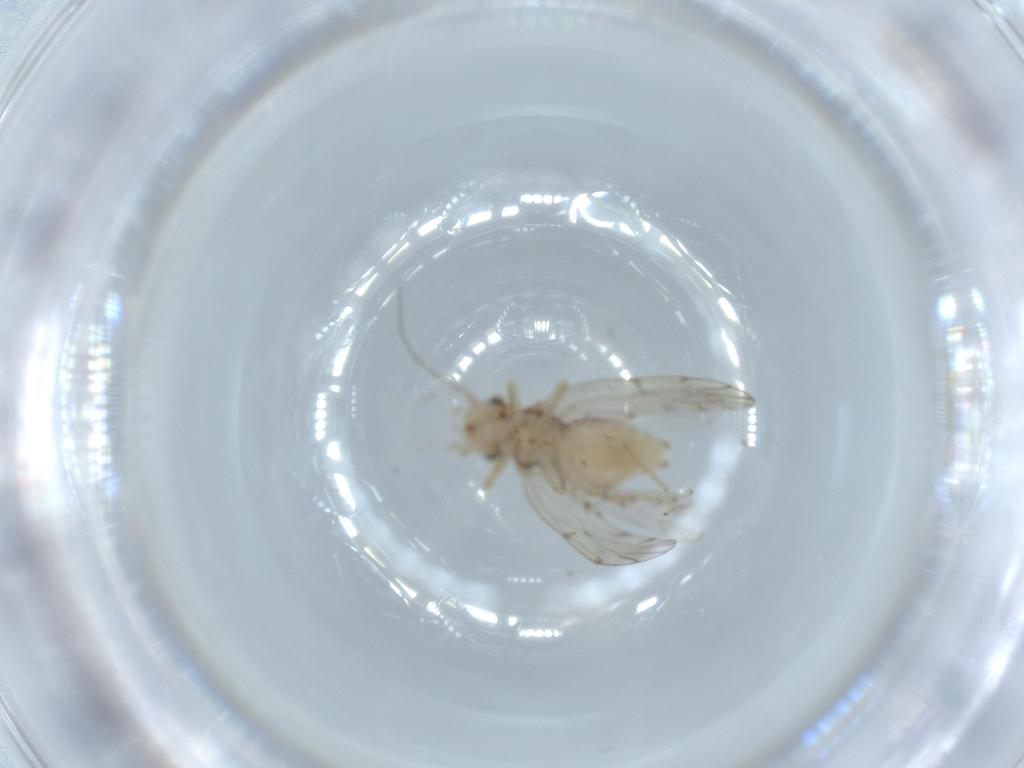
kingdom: Animalia
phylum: Arthropoda
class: Insecta
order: Psocodea
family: Ectopsocidae
